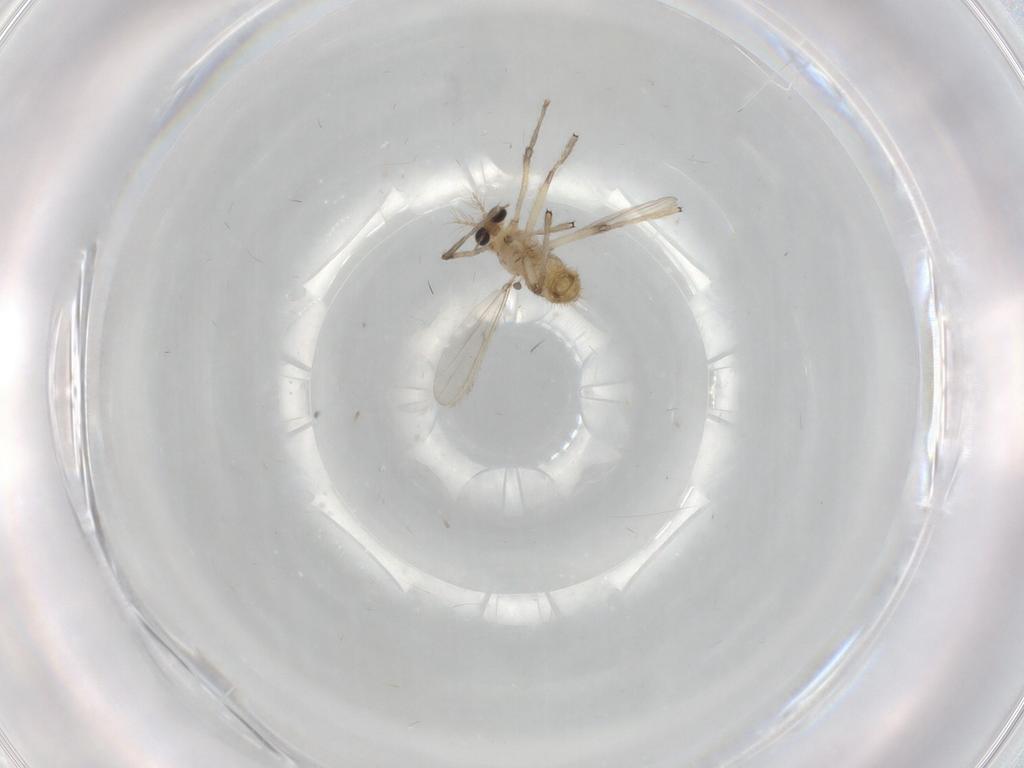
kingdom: Animalia
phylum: Arthropoda
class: Insecta
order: Diptera
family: Chironomidae
